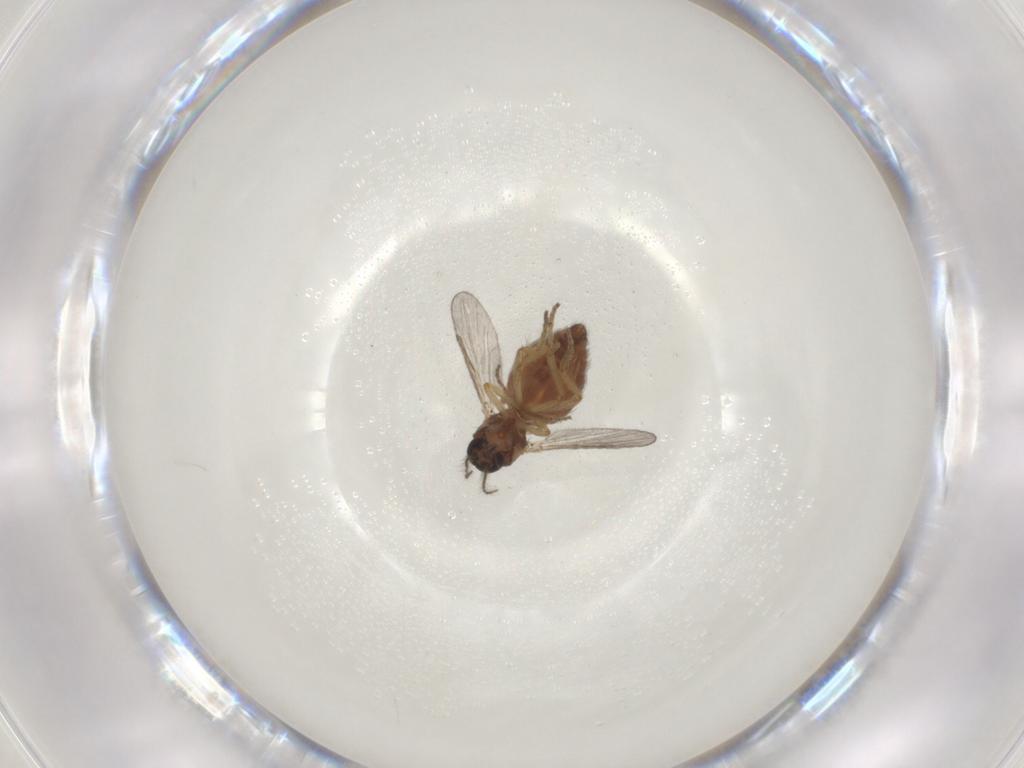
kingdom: Animalia
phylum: Arthropoda
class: Insecta
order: Diptera
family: Ceratopogonidae
